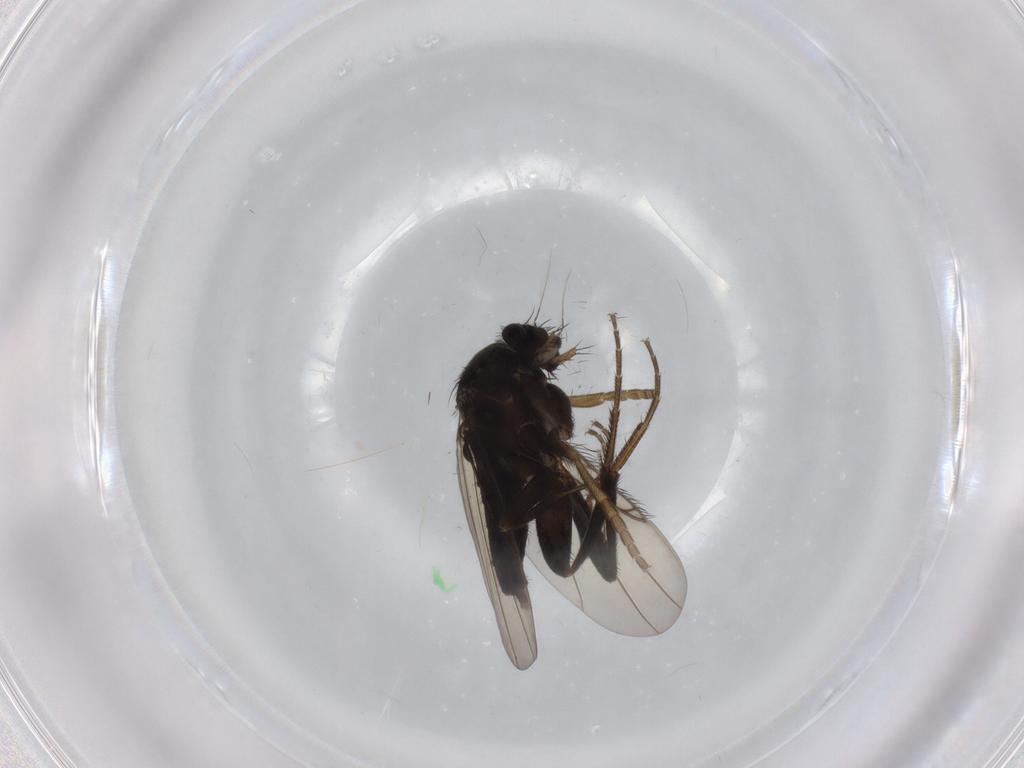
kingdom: Animalia
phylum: Arthropoda
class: Insecta
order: Diptera
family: Phoridae
